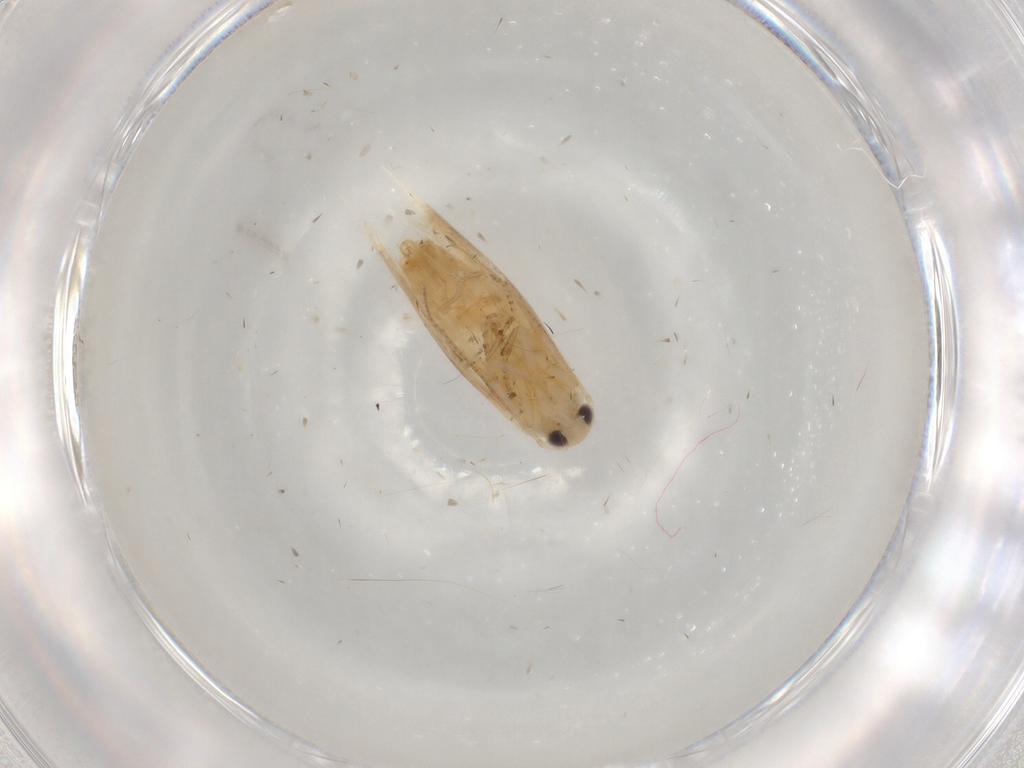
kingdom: Animalia
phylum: Arthropoda
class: Insecta
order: Lepidoptera
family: Bucculatricidae
